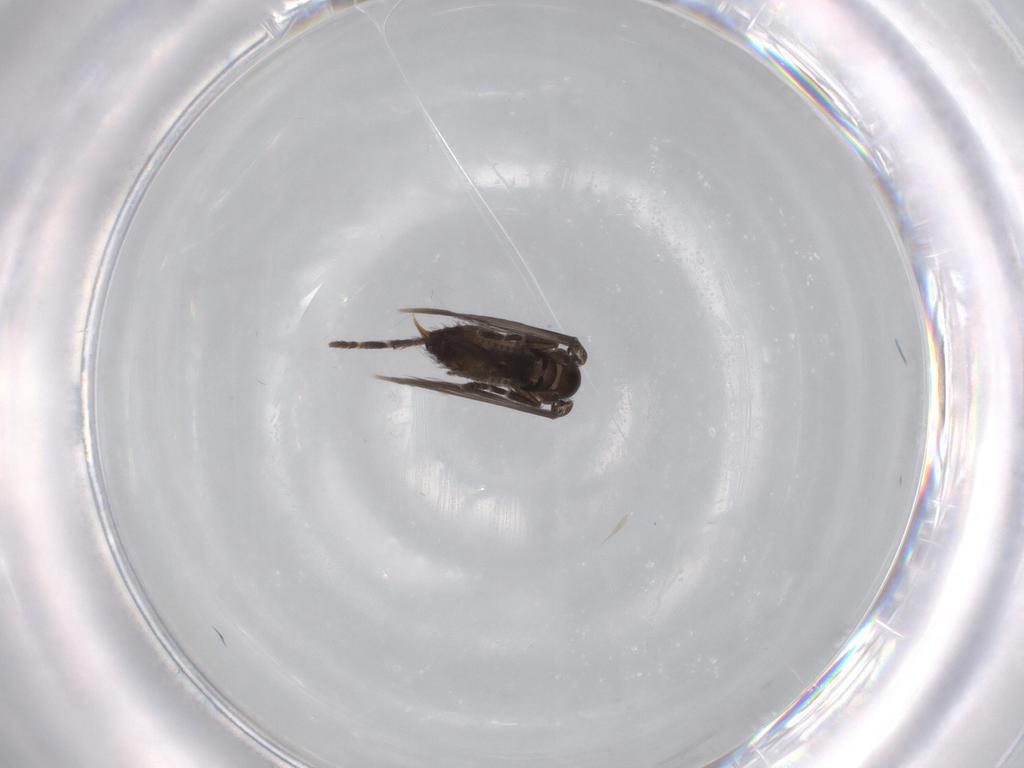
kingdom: Animalia
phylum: Arthropoda
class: Insecta
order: Diptera
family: Psychodidae
